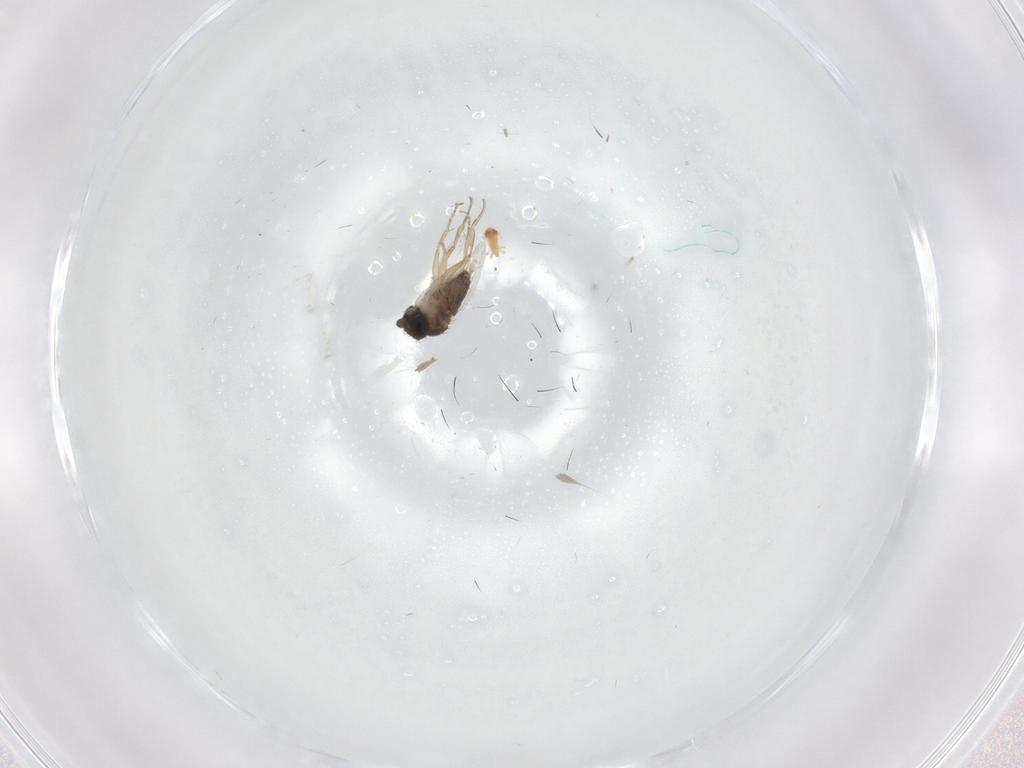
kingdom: Animalia
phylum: Arthropoda
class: Insecta
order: Diptera
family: Phoridae
